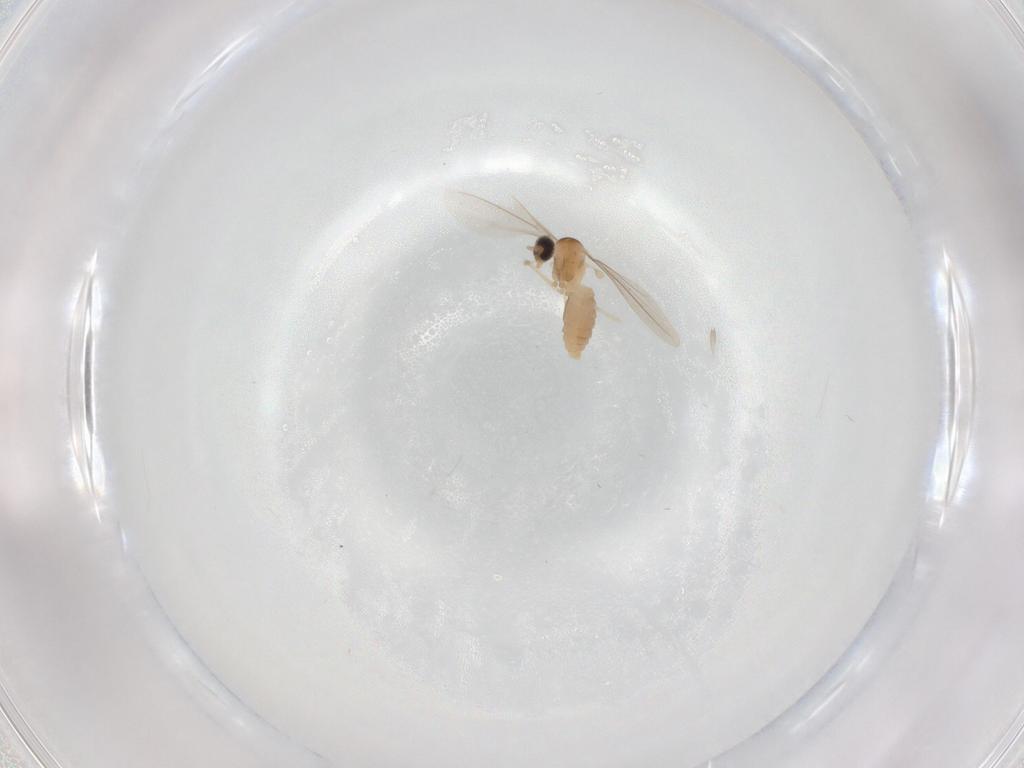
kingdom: Animalia
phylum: Arthropoda
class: Insecta
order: Diptera
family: Cecidomyiidae
